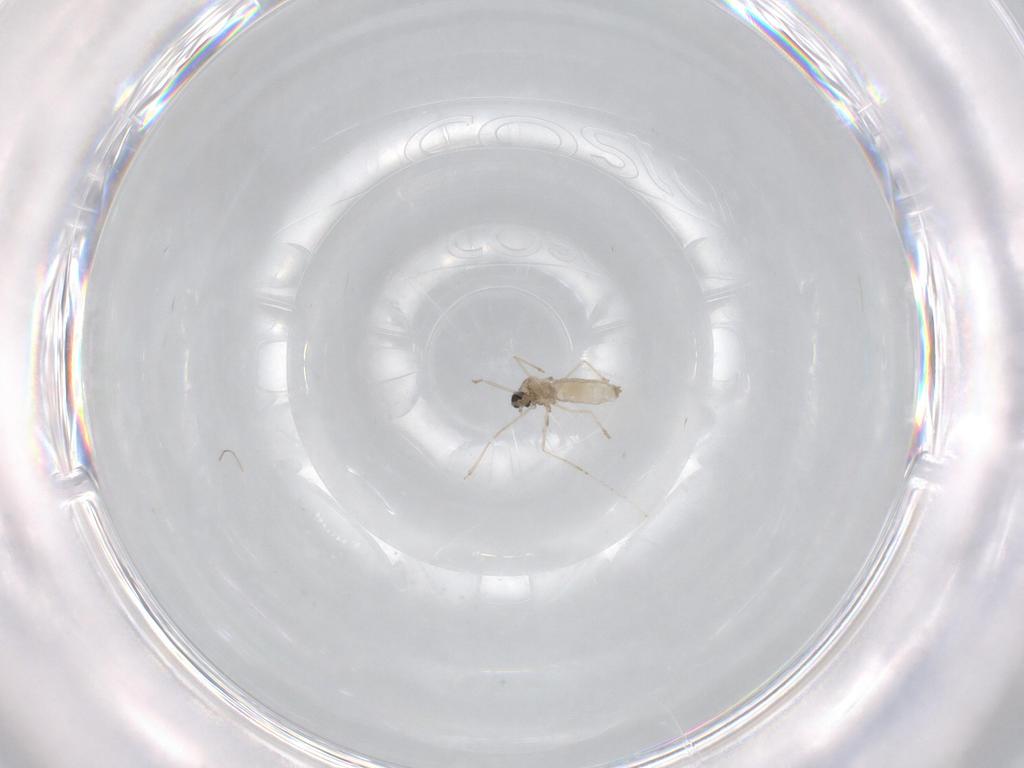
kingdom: Animalia
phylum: Arthropoda
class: Insecta
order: Diptera
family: Chironomidae
